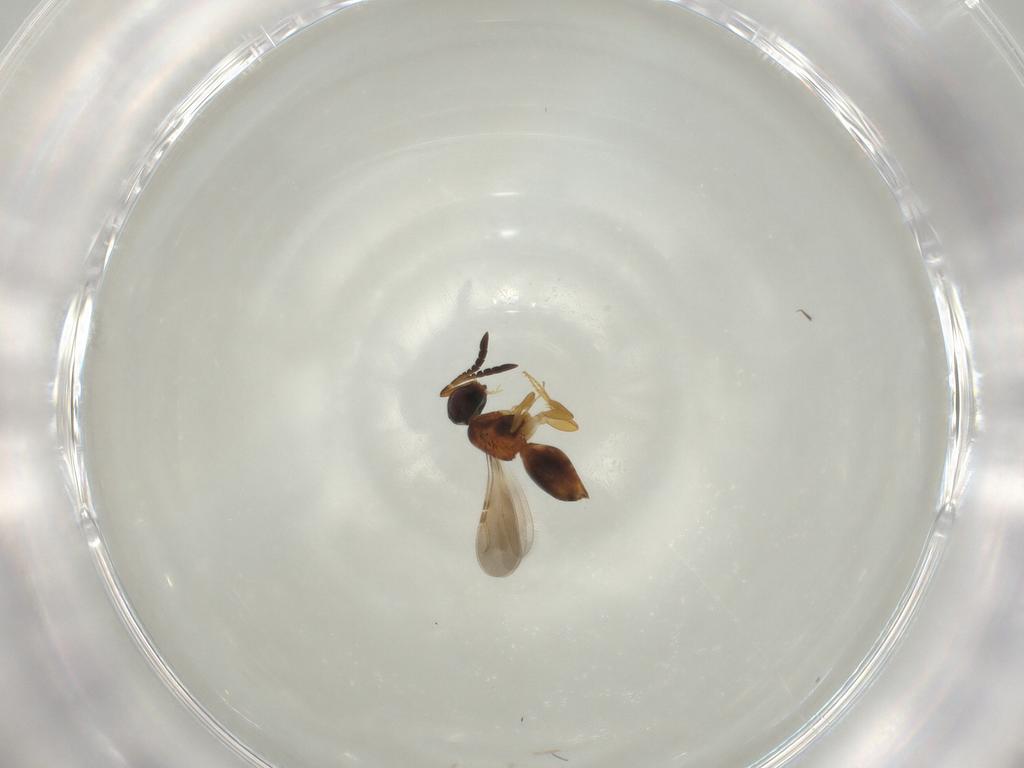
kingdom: Animalia
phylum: Arthropoda
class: Insecta
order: Hymenoptera
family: Ceraphronidae
